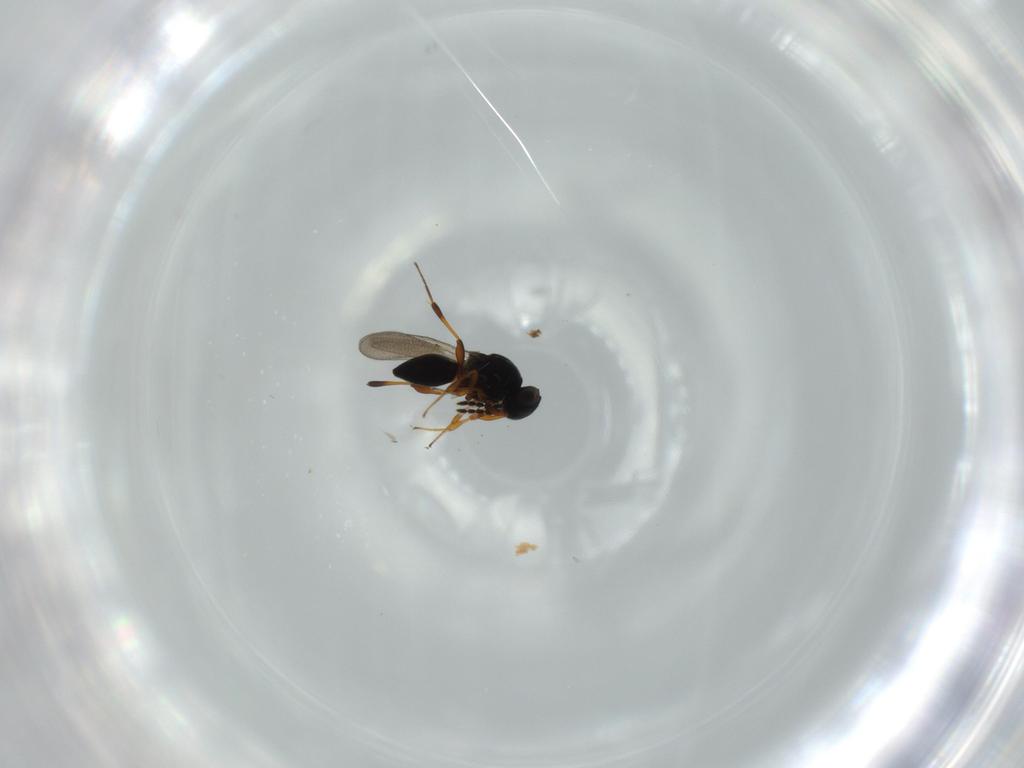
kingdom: Animalia
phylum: Arthropoda
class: Insecta
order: Hymenoptera
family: Platygastridae
